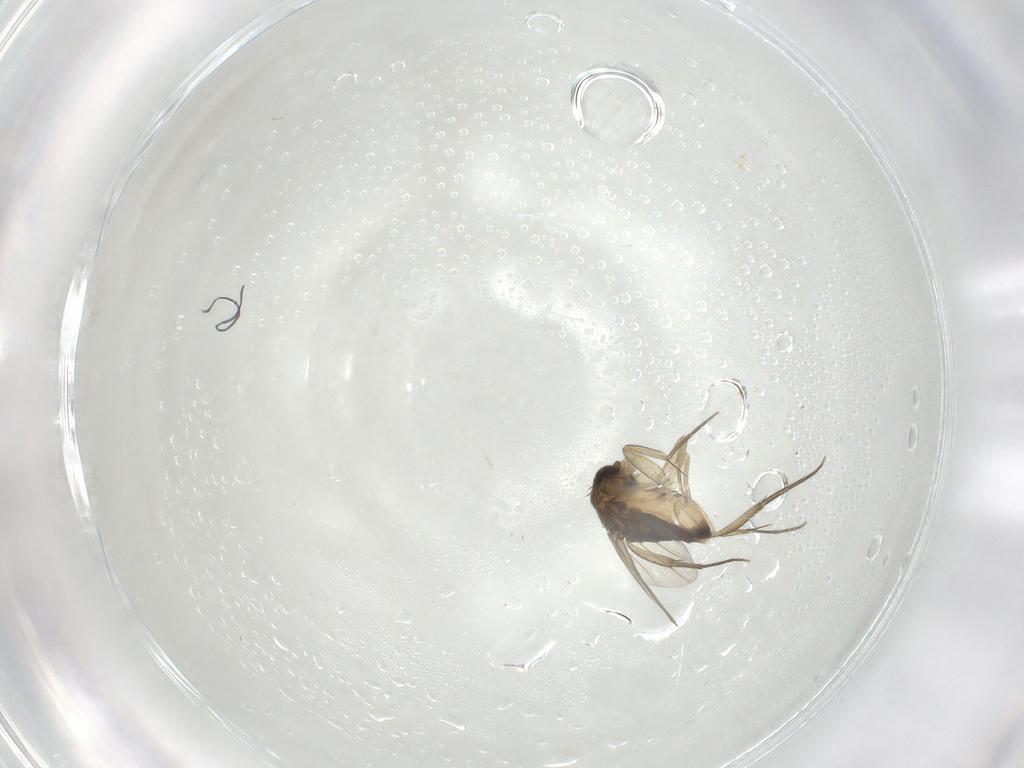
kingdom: Animalia
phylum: Arthropoda
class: Insecta
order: Diptera
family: Phoridae
